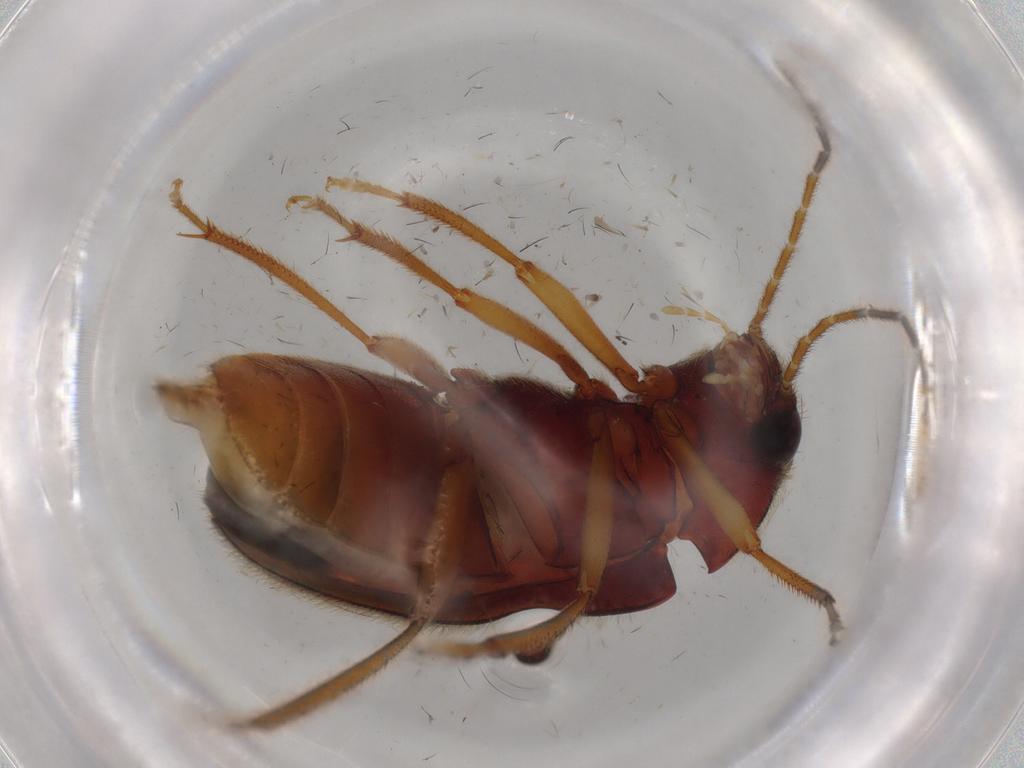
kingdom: Animalia
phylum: Arthropoda
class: Insecta
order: Coleoptera
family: Ptilodactylidae
